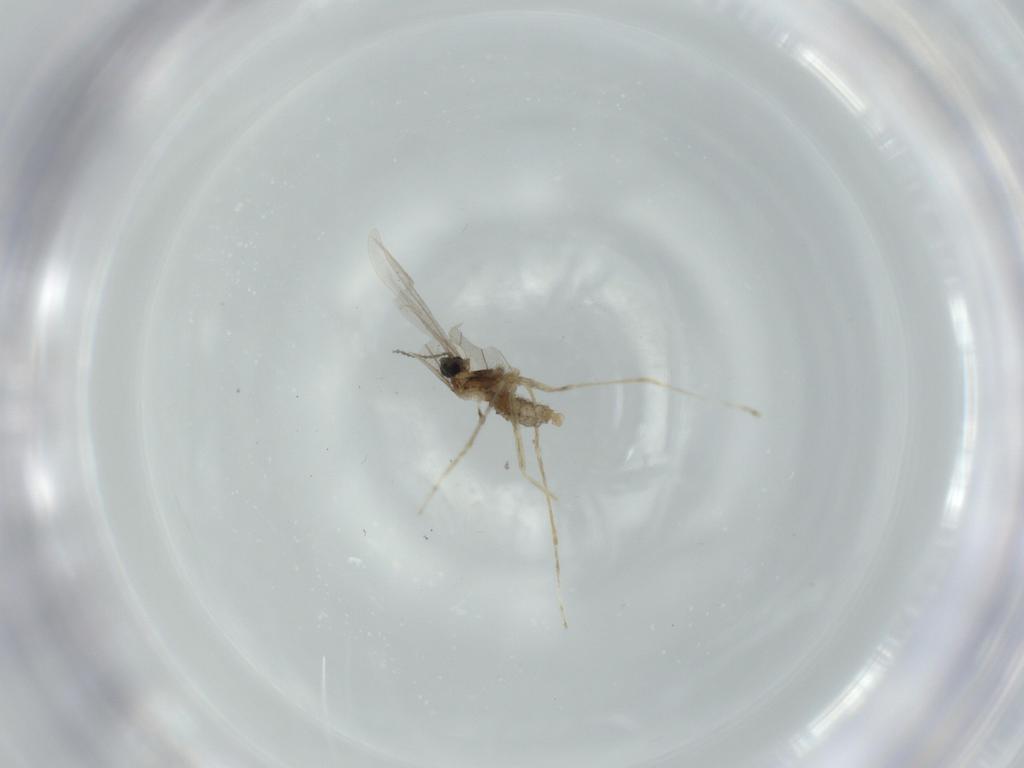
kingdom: Animalia
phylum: Arthropoda
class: Insecta
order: Diptera
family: Cecidomyiidae
